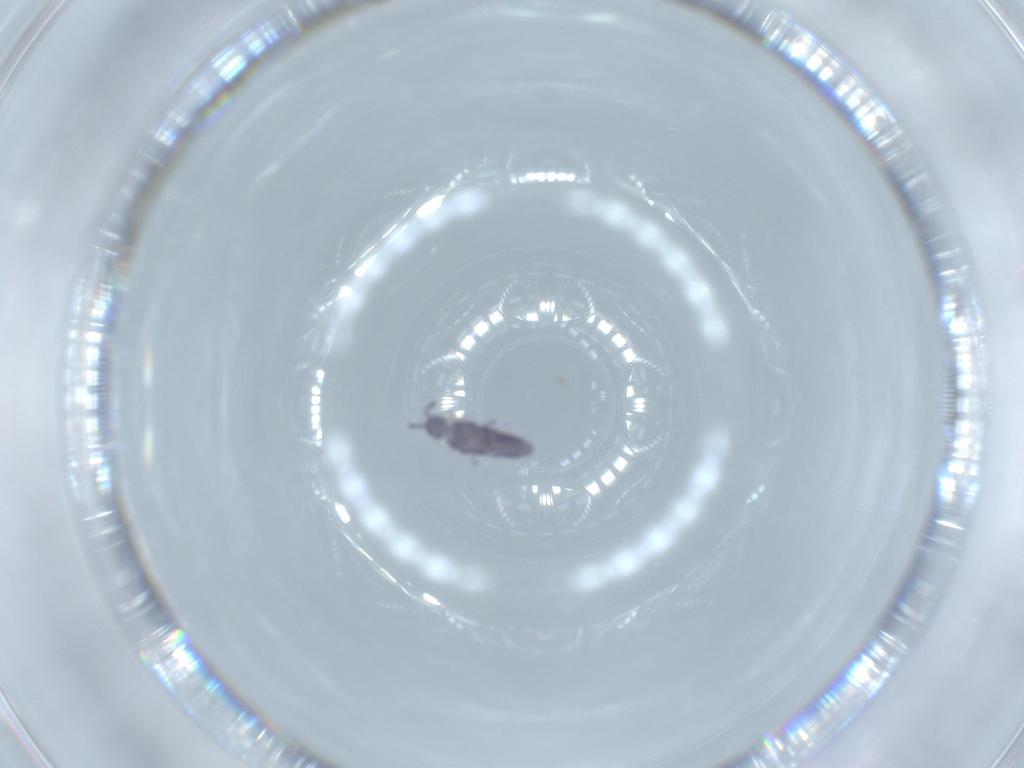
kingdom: Animalia
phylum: Arthropoda
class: Collembola
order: Entomobryomorpha
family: Entomobryidae
